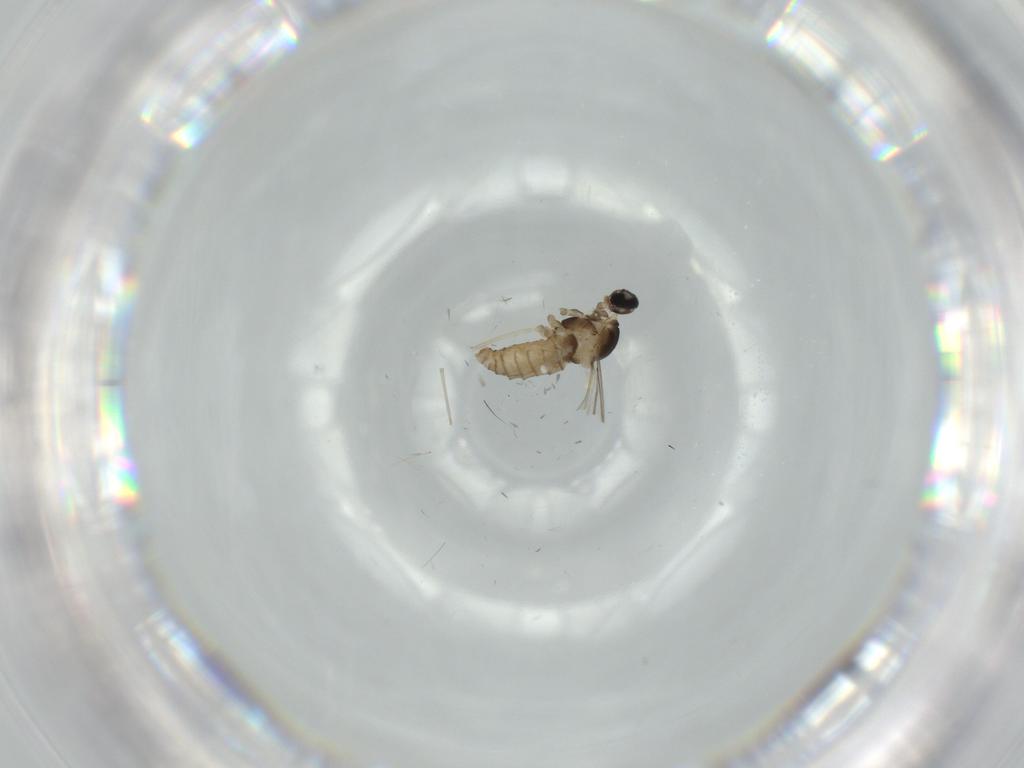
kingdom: Animalia
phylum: Arthropoda
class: Insecta
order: Diptera
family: Chironomidae
